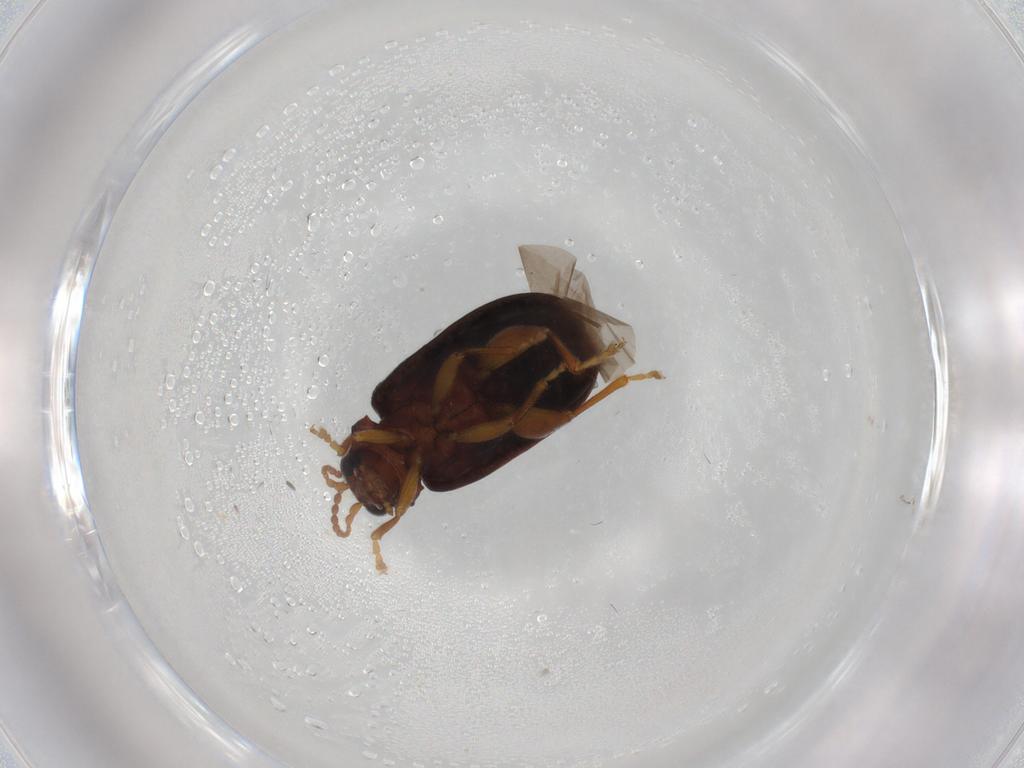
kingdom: Animalia
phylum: Arthropoda
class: Insecta
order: Coleoptera
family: Chrysomelidae
